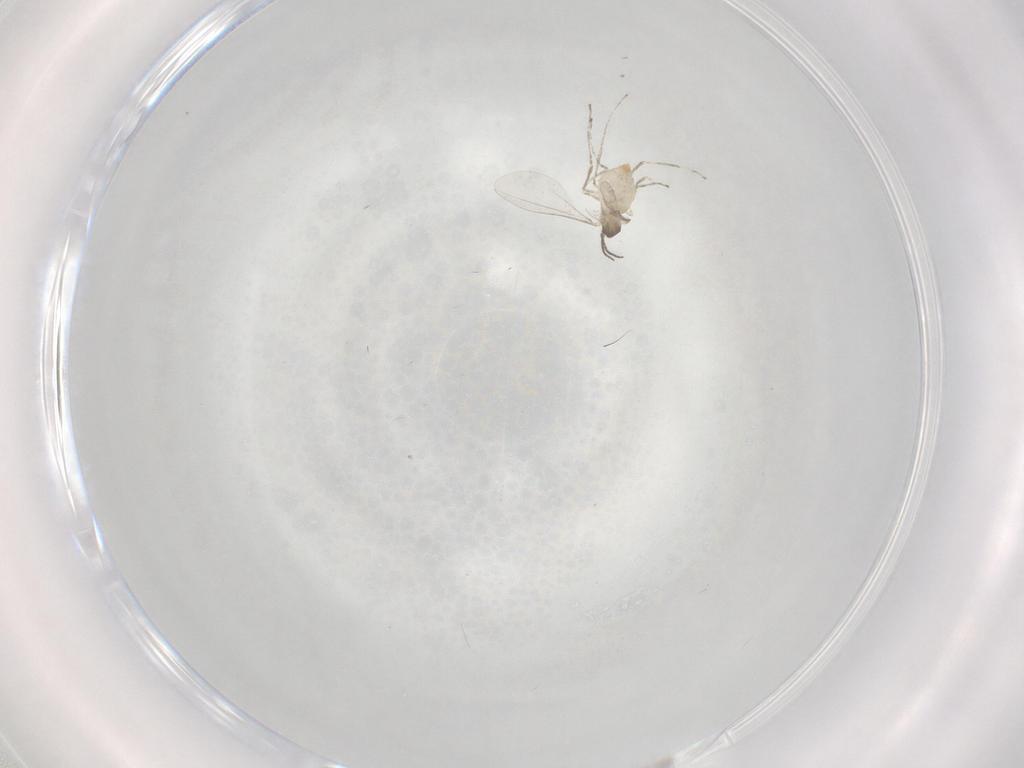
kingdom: Animalia
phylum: Arthropoda
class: Insecta
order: Diptera
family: Cecidomyiidae
